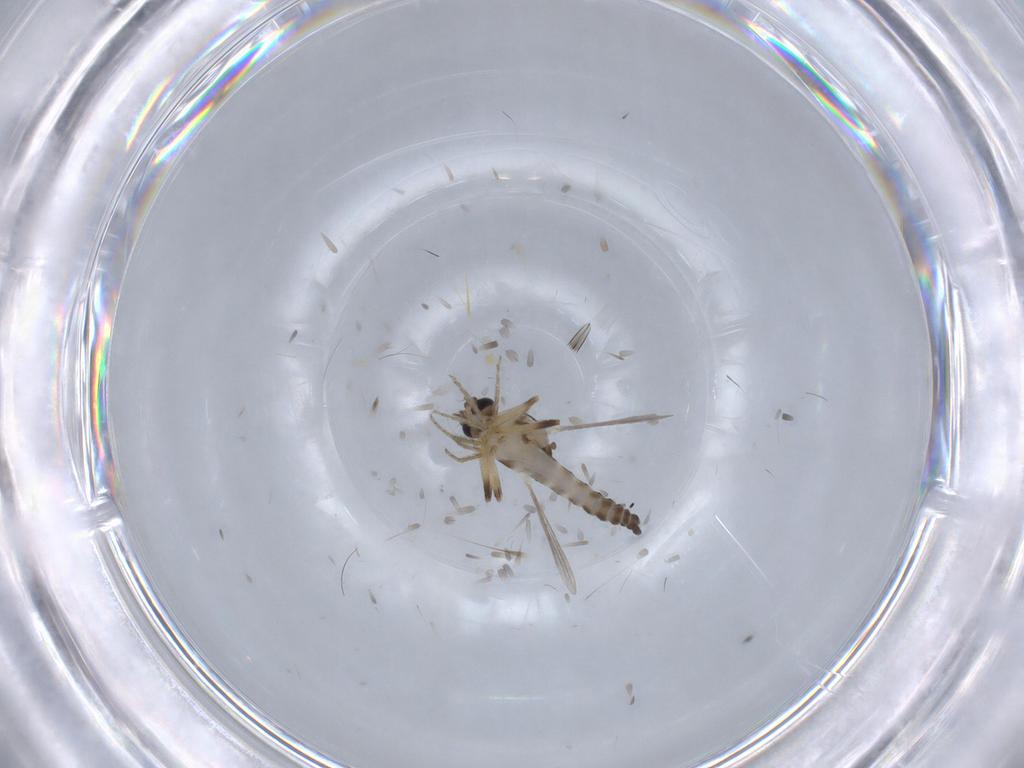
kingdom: Animalia
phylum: Arthropoda
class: Insecta
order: Diptera
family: Ceratopogonidae
